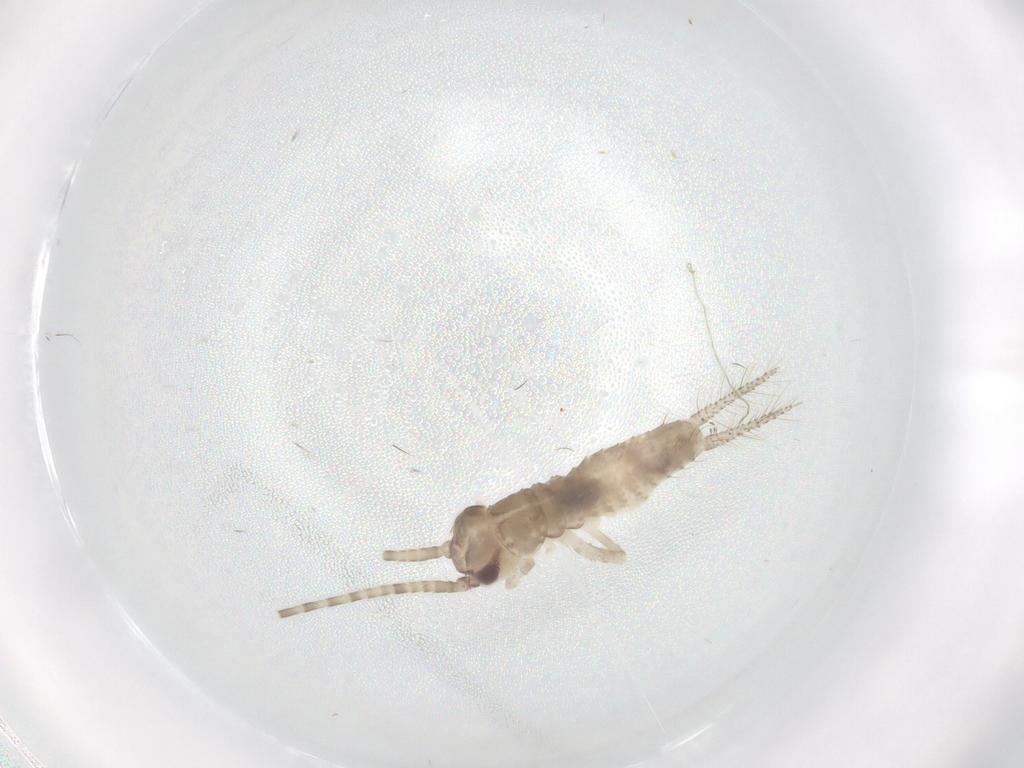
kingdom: Animalia
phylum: Arthropoda
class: Insecta
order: Orthoptera
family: Gryllidae
